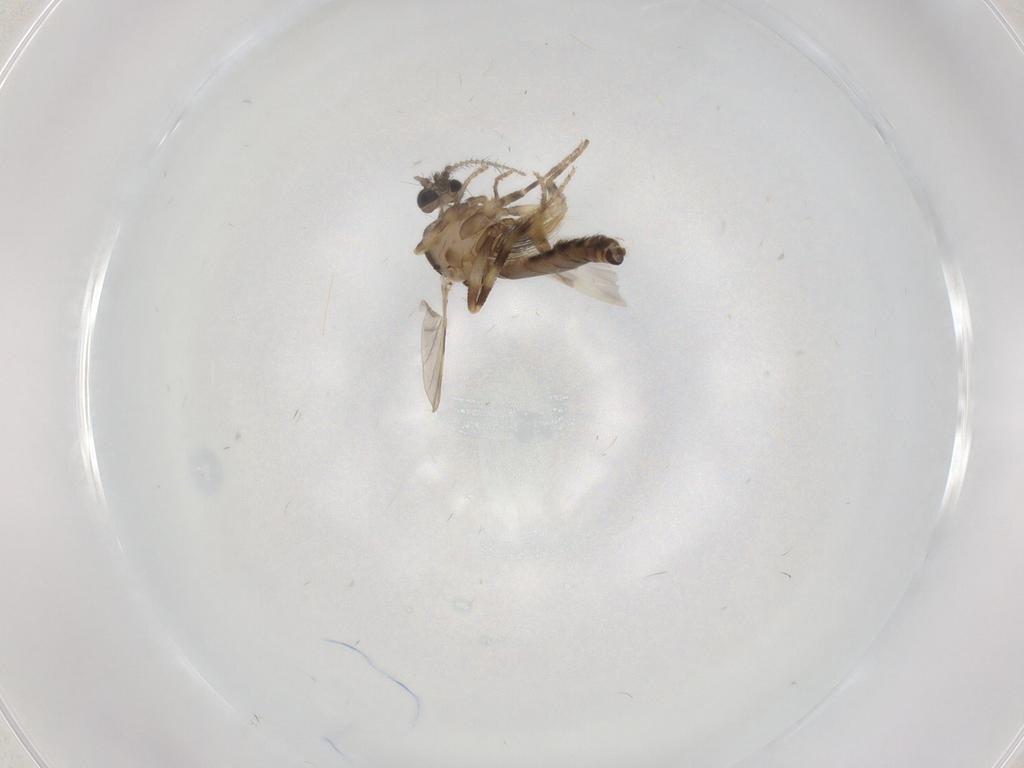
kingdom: Animalia
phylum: Arthropoda
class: Insecta
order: Diptera
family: Ceratopogonidae
